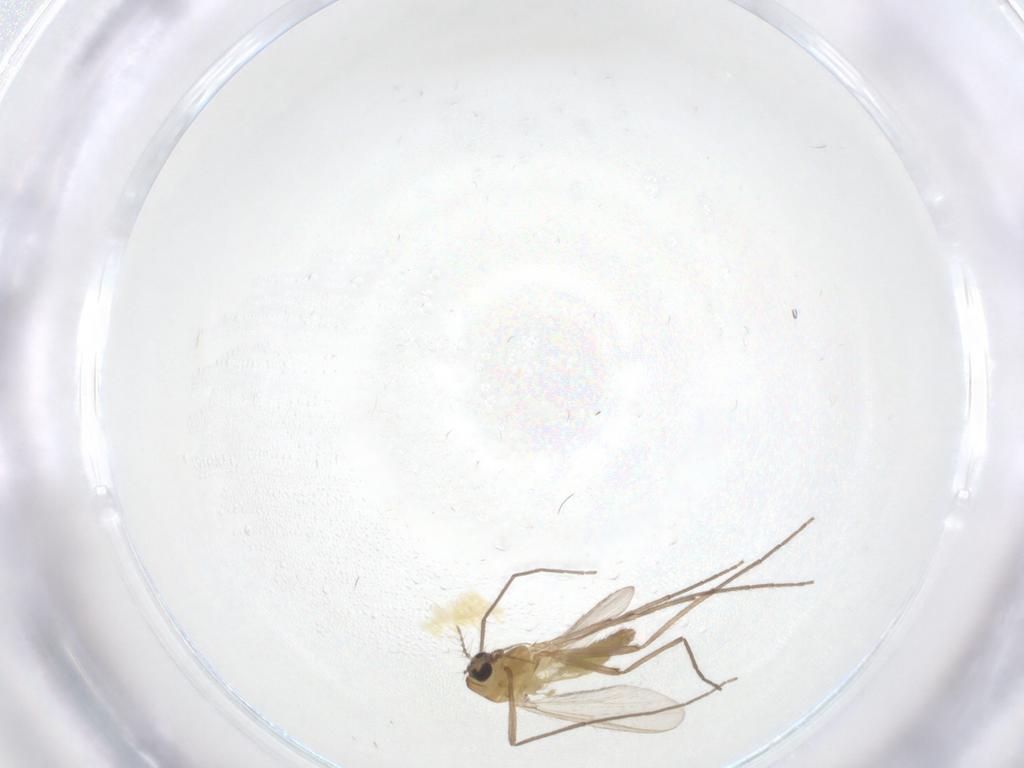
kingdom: Animalia
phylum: Arthropoda
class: Insecta
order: Diptera
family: Chironomidae
